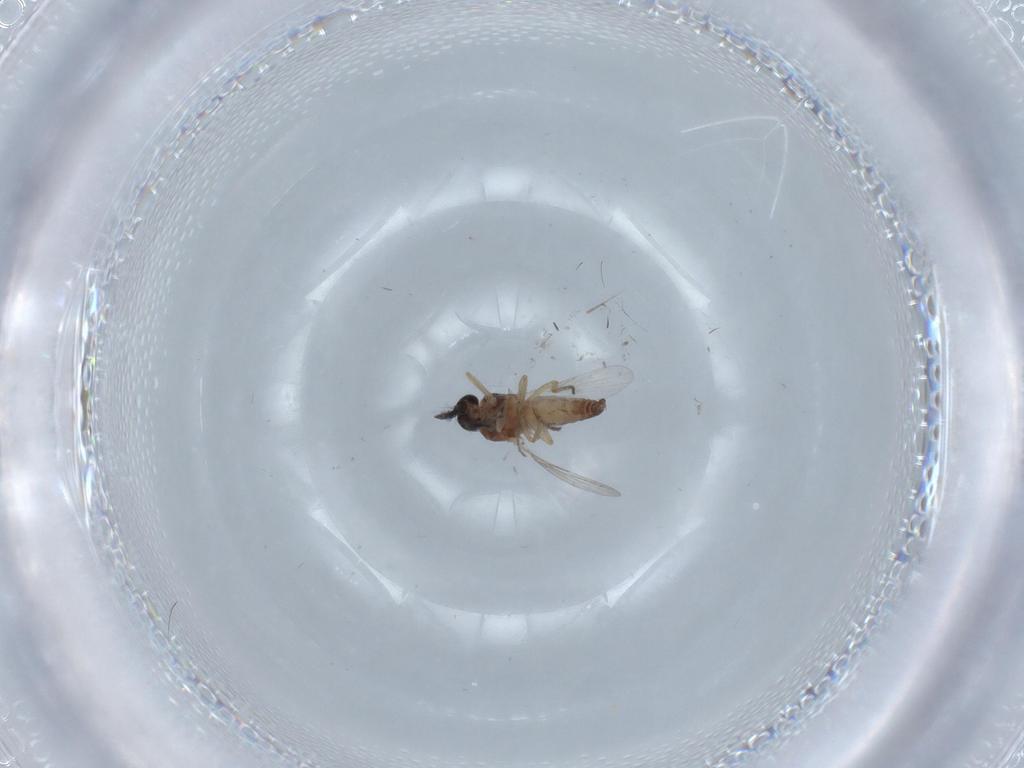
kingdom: Animalia
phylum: Arthropoda
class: Insecta
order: Diptera
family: Ceratopogonidae
